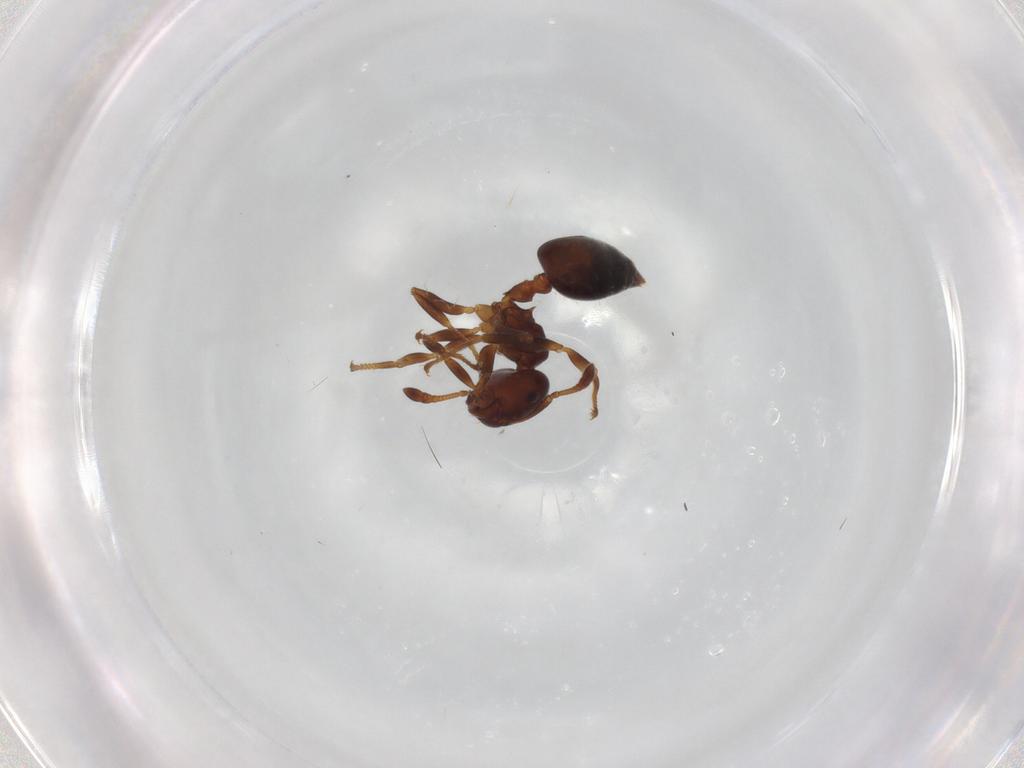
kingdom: Animalia
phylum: Arthropoda
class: Insecta
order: Hymenoptera
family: Formicidae
